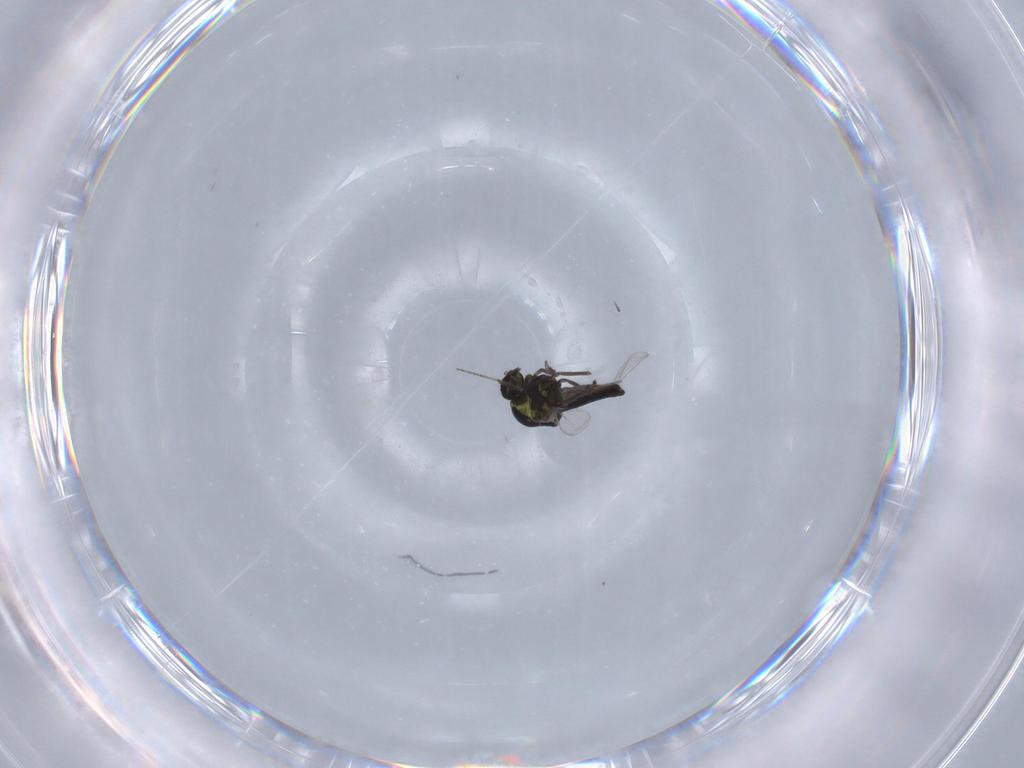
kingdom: Animalia
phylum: Arthropoda
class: Insecta
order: Diptera
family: Ceratopogonidae
